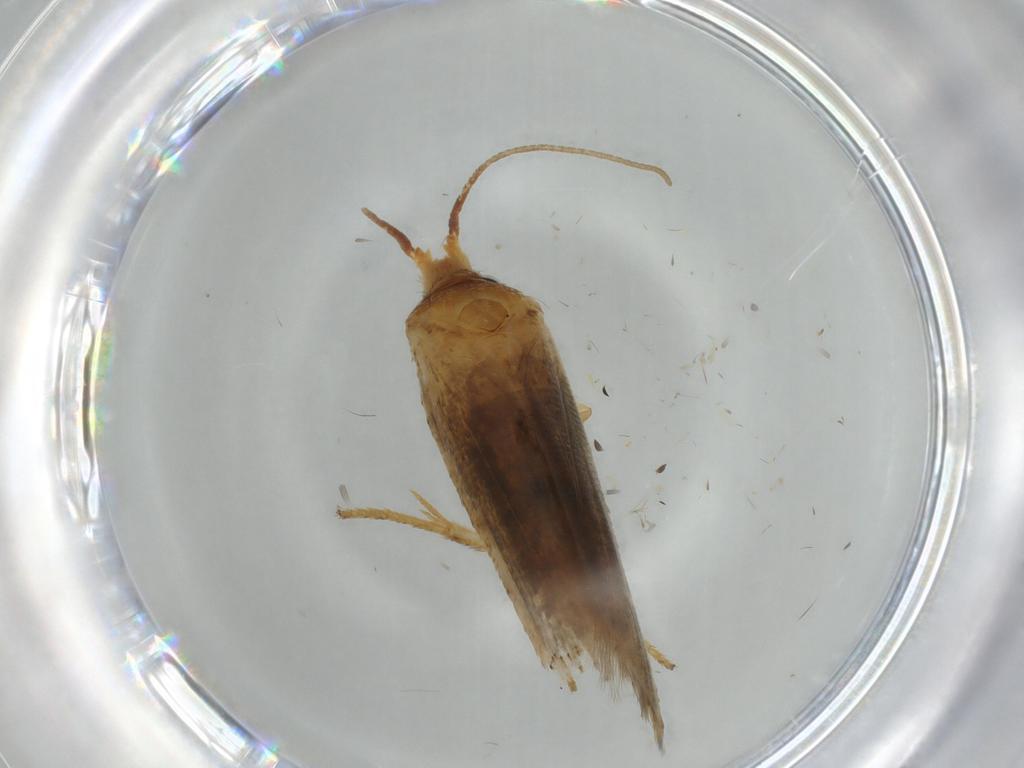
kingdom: Animalia
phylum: Arthropoda
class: Insecta
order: Lepidoptera
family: Coleophoridae
